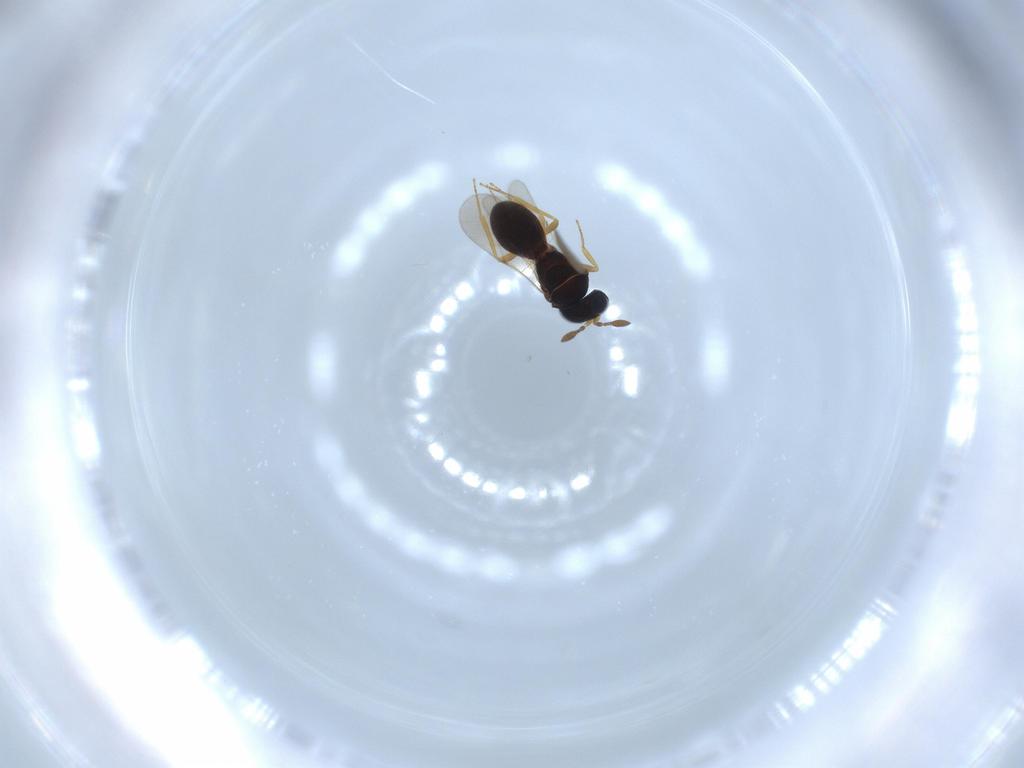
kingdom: Animalia
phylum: Arthropoda
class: Insecta
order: Hymenoptera
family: Scelionidae
